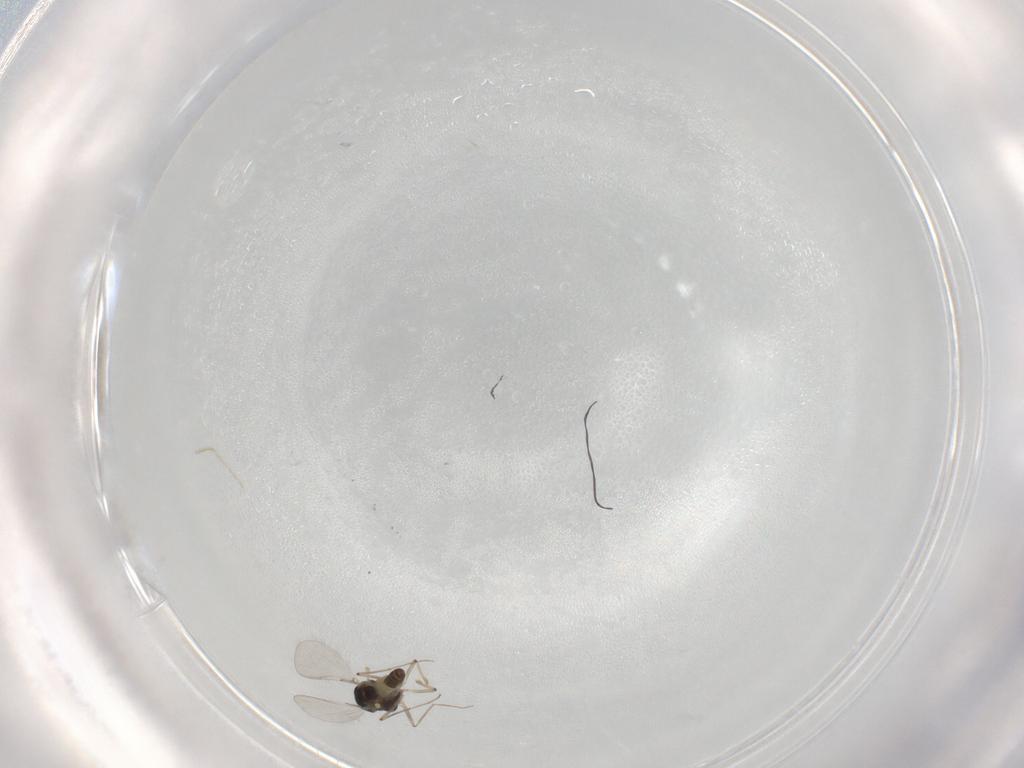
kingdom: Animalia
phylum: Arthropoda
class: Insecta
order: Diptera
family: Chironomidae
